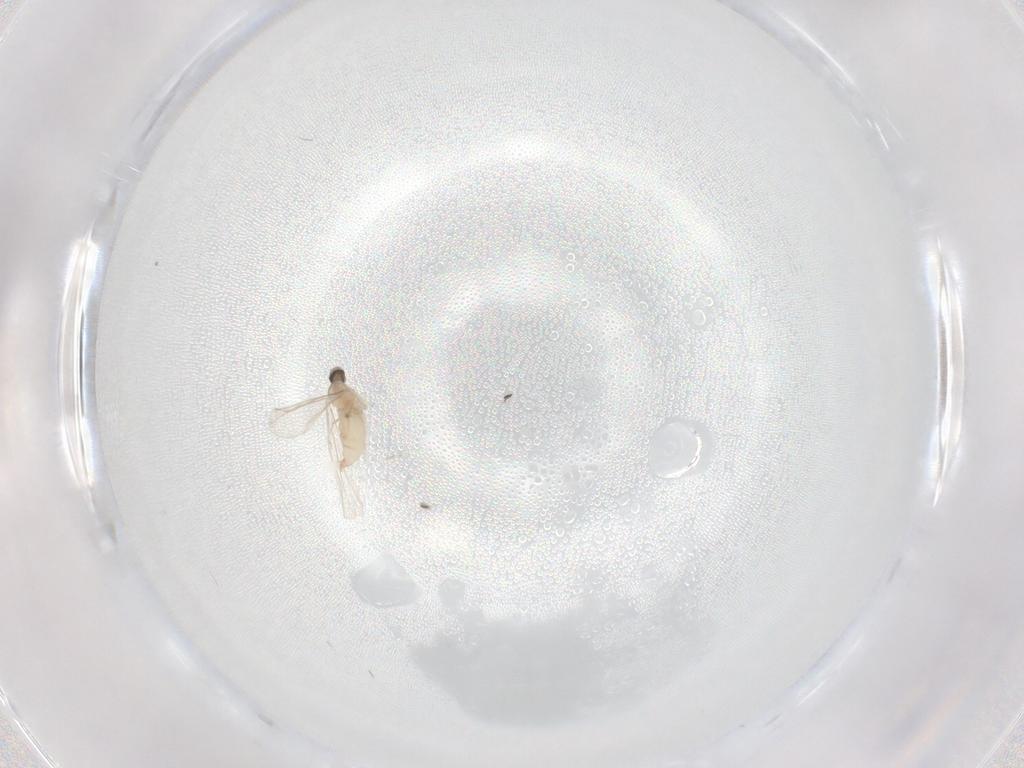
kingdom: Animalia
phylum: Arthropoda
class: Insecta
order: Diptera
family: Cecidomyiidae
